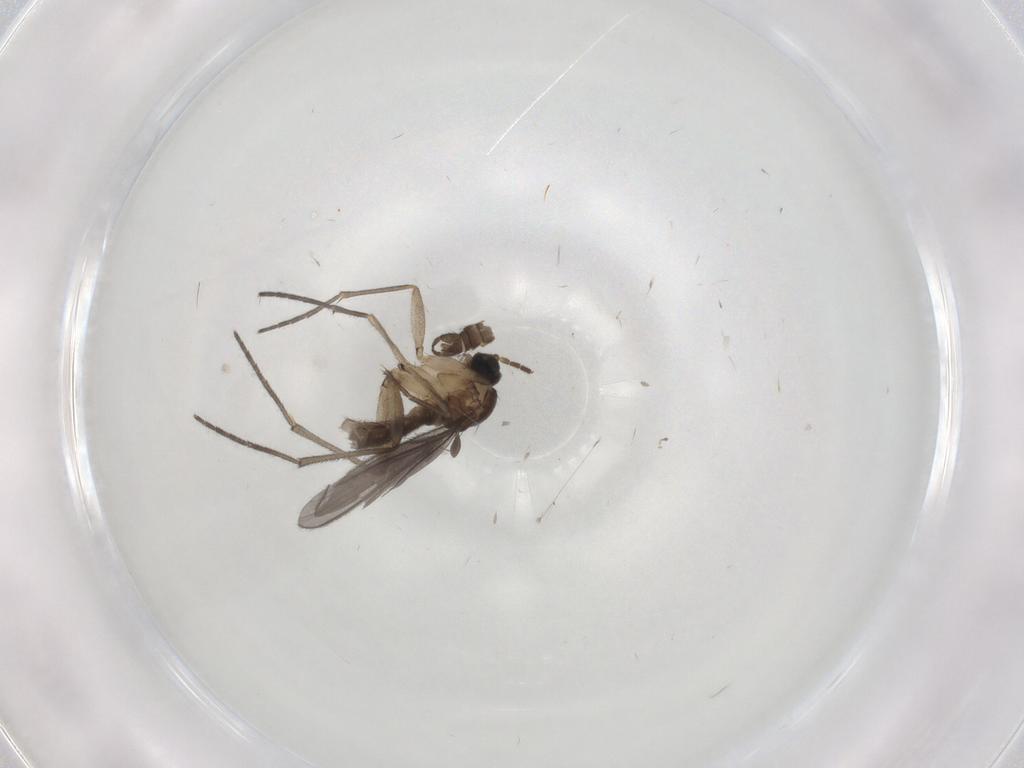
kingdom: Animalia
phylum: Arthropoda
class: Insecta
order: Diptera
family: Sciaridae
